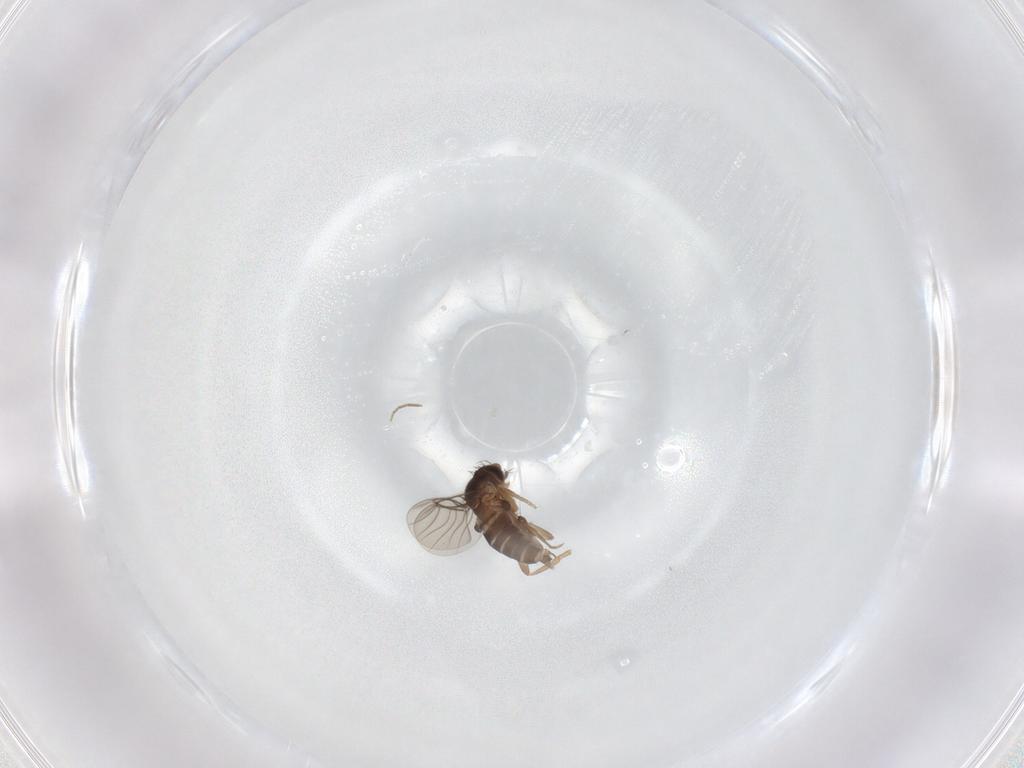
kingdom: Animalia
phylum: Arthropoda
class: Insecta
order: Diptera
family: Phoridae
